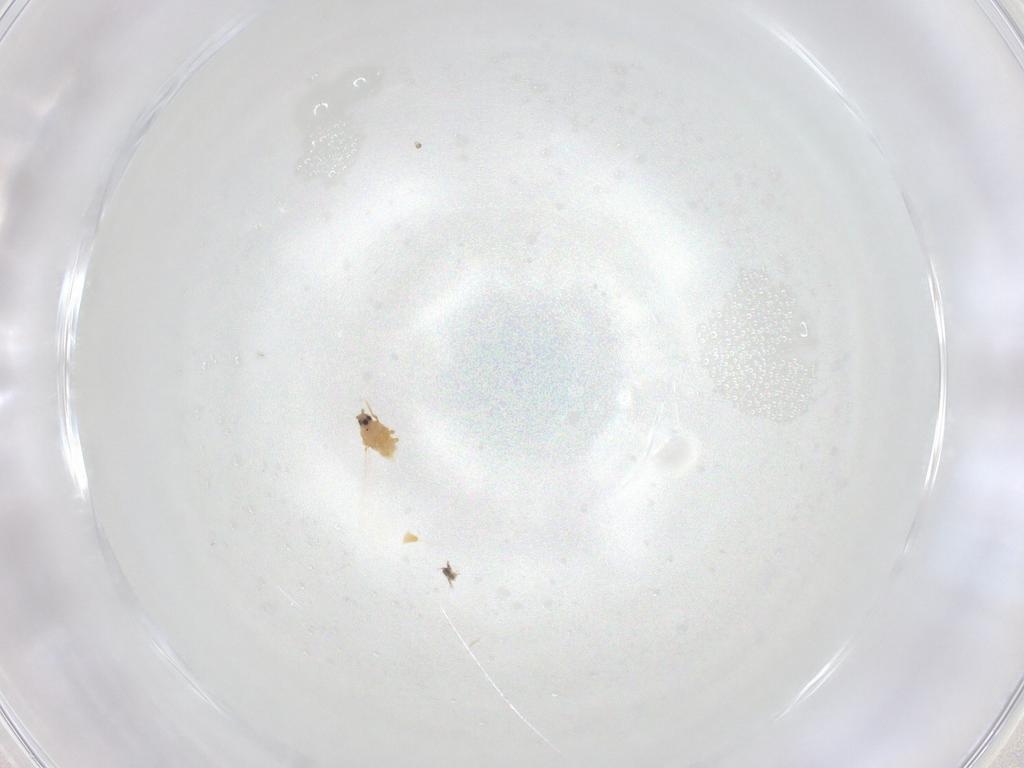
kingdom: Animalia
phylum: Arthropoda
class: Insecta
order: Diptera
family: Cecidomyiidae
